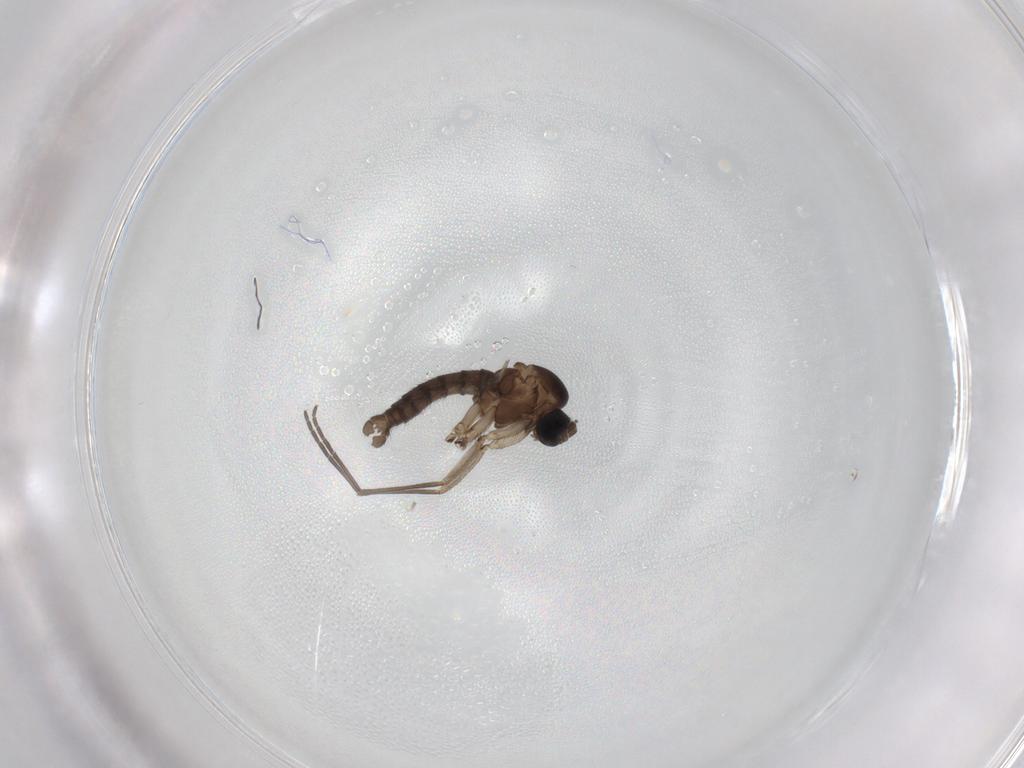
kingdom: Animalia
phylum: Arthropoda
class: Insecta
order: Diptera
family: Sciaridae
